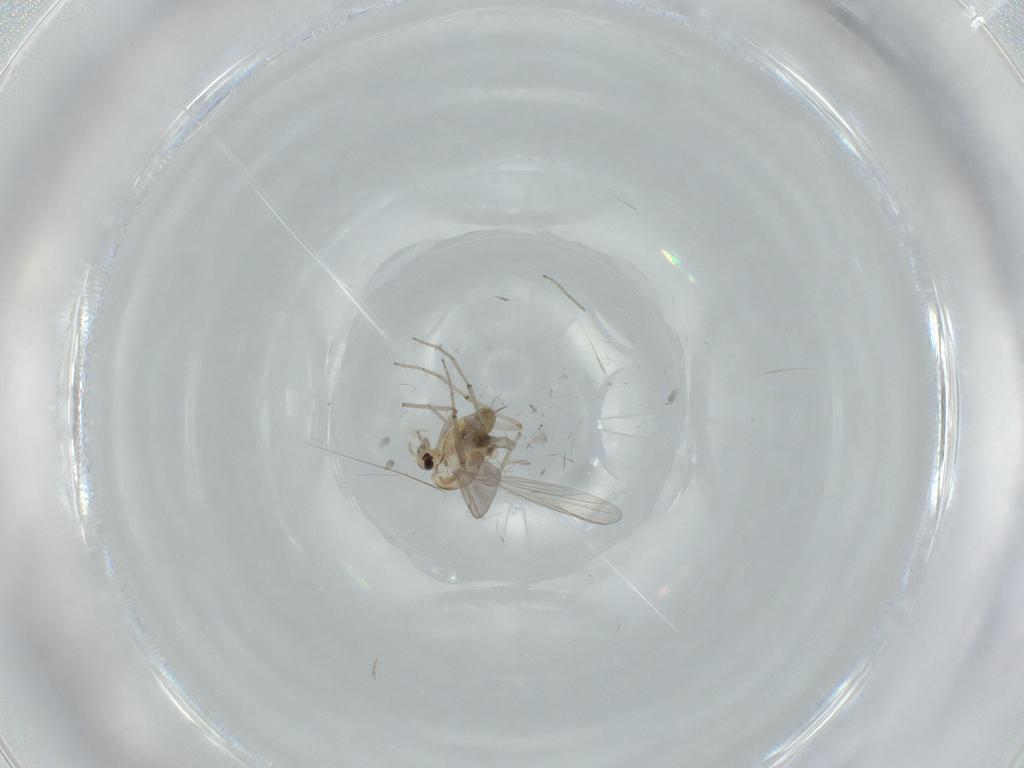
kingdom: Animalia
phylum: Arthropoda
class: Insecta
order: Diptera
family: Chironomidae
